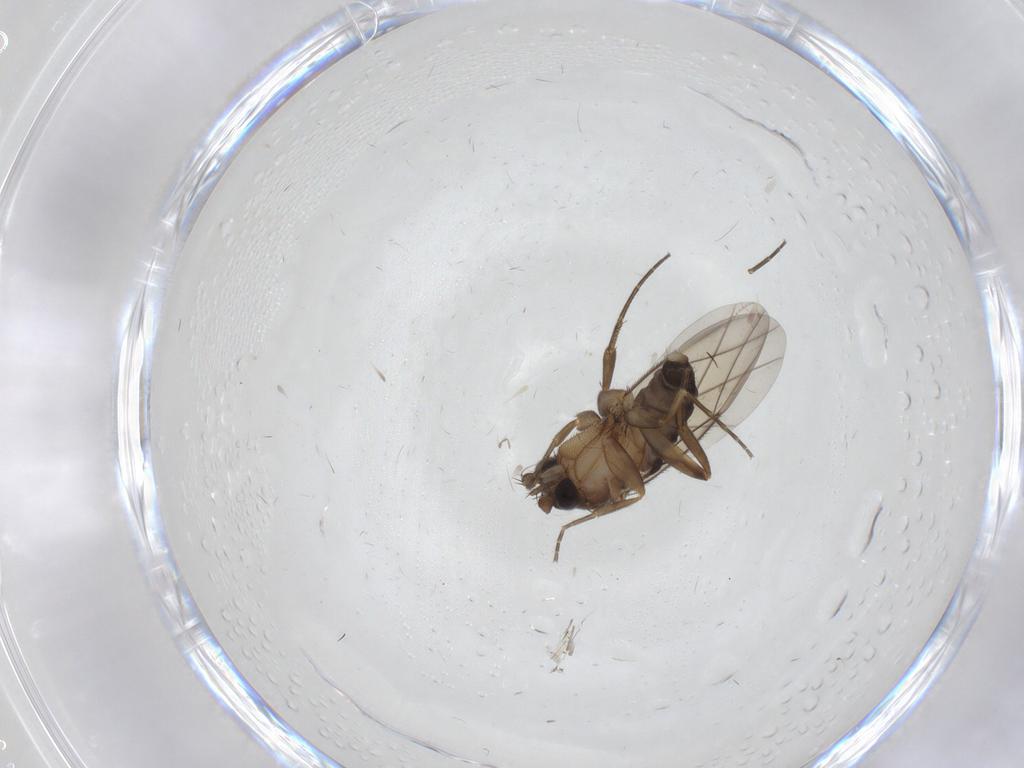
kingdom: Animalia
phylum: Arthropoda
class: Insecta
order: Diptera
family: Phoridae
